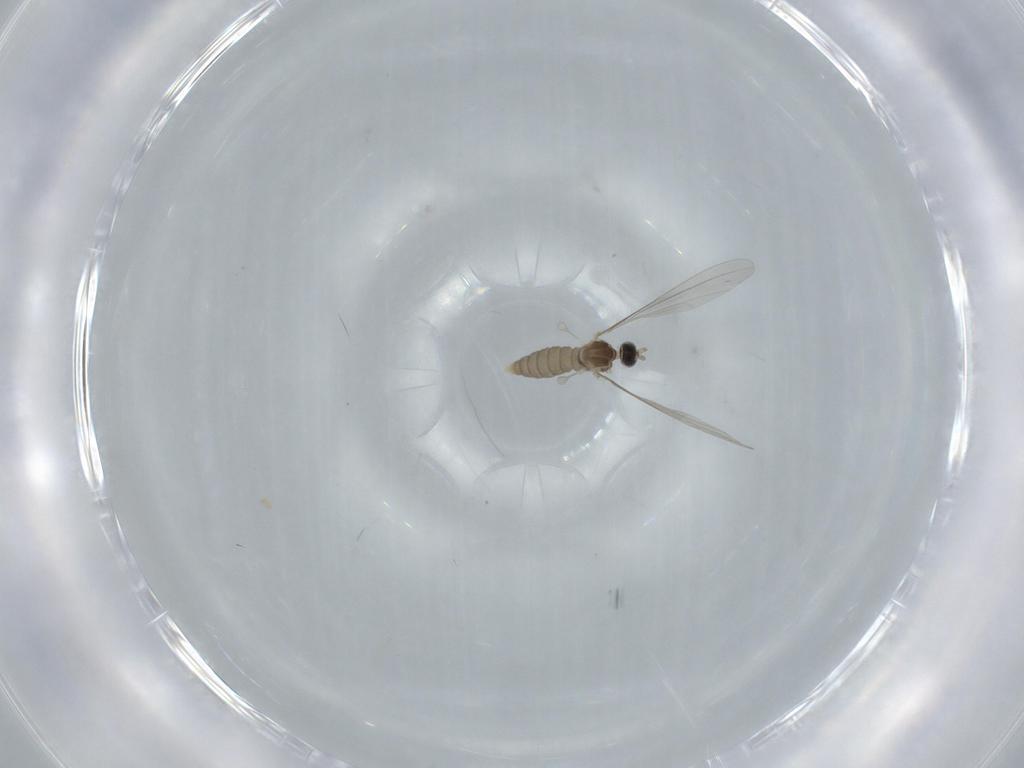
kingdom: Animalia
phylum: Arthropoda
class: Insecta
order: Diptera
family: Cecidomyiidae
